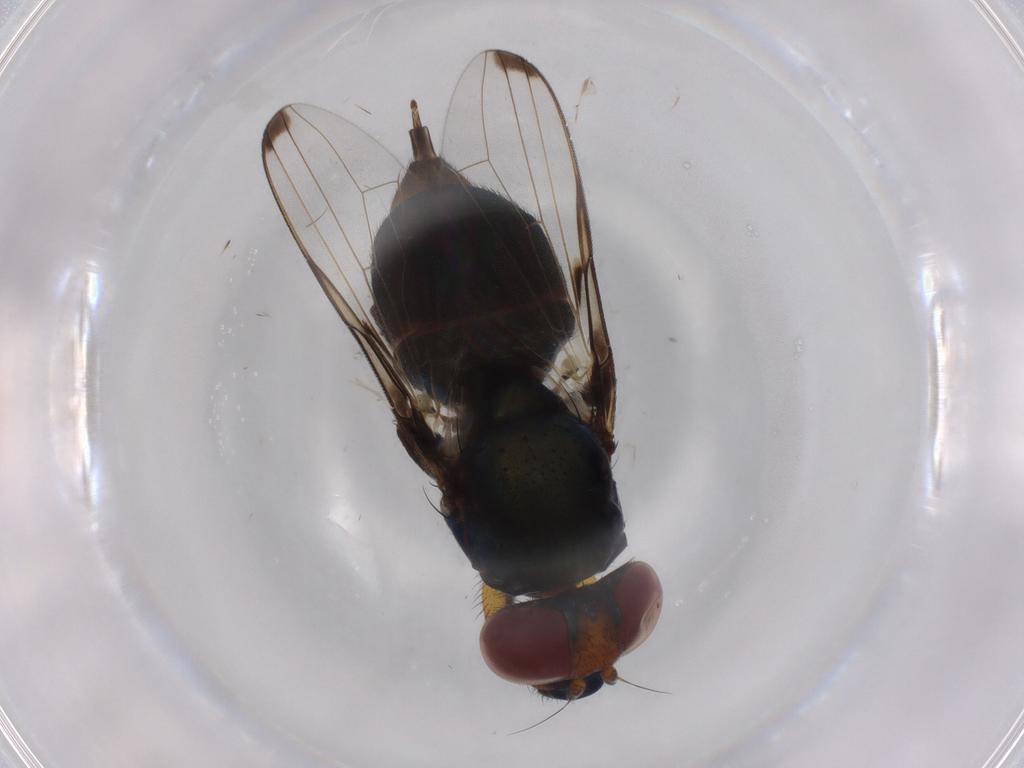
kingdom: Animalia
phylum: Arthropoda
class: Insecta
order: Diptera
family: Ulidiidae
